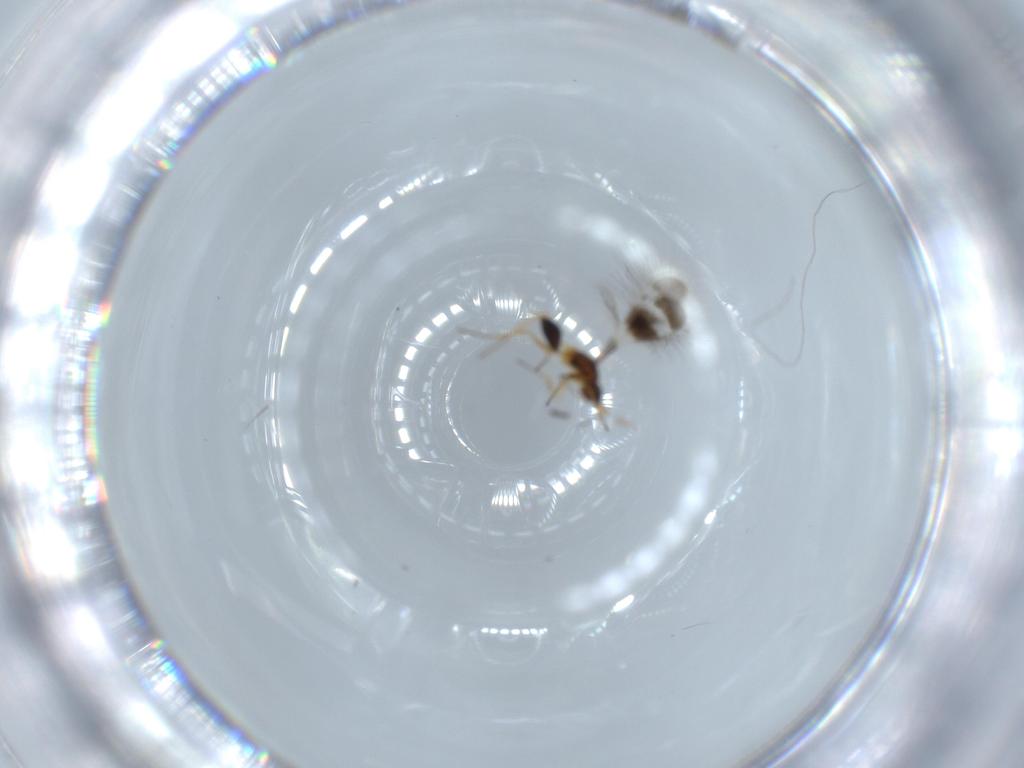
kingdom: Animalia
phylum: Arthropoda
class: Insecta
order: Hymenoptera
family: Mymaridae
